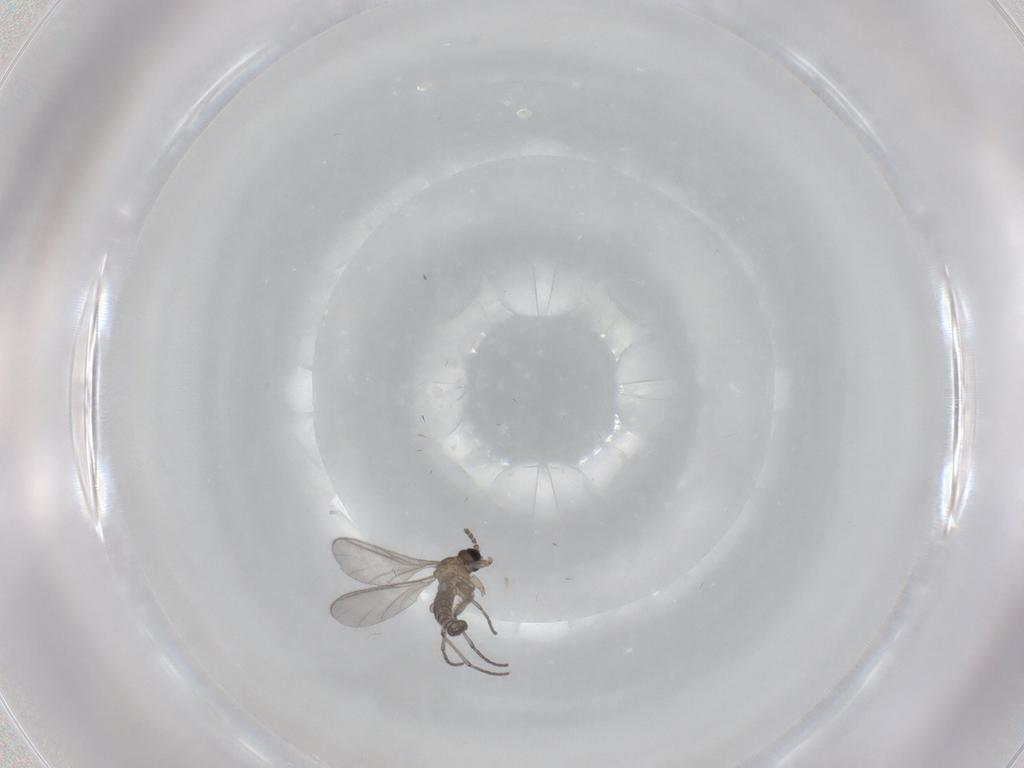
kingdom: Animalia
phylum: Arthropoda
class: Insecta
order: Diptera
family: Sciaridae
